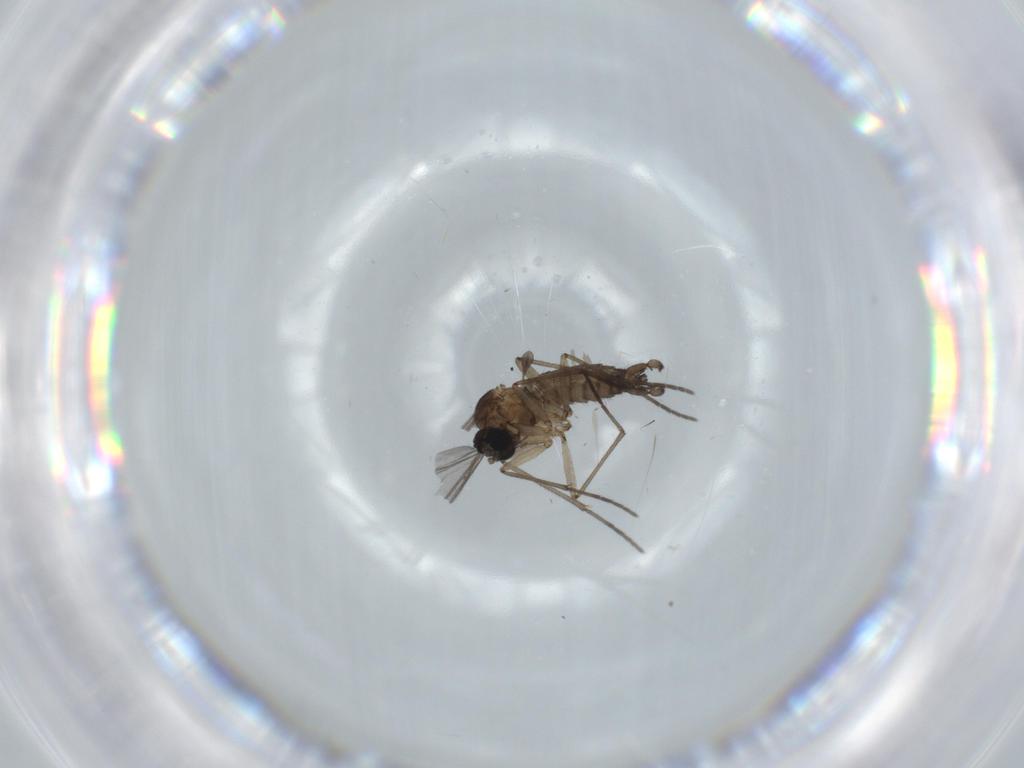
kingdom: Animalia
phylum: Arthropoda
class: Insecta
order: Diptera
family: Sciaridae
